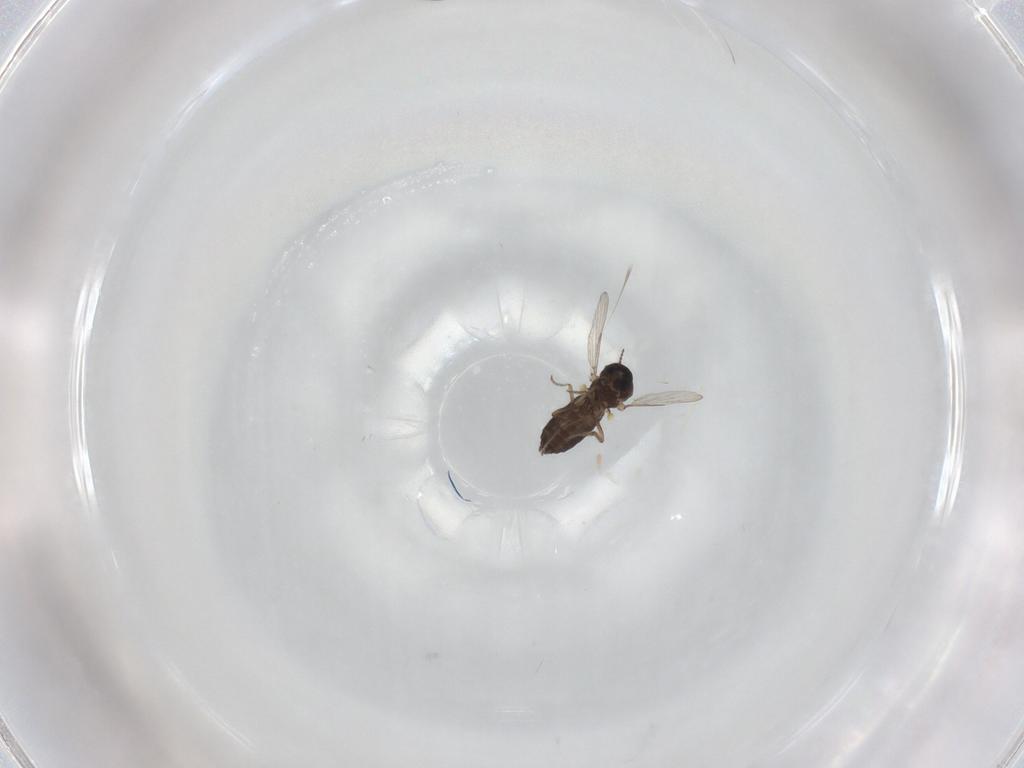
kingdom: Animalia
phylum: Arthropoda
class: Insecta
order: Diptera
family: Ceratopogonidae
